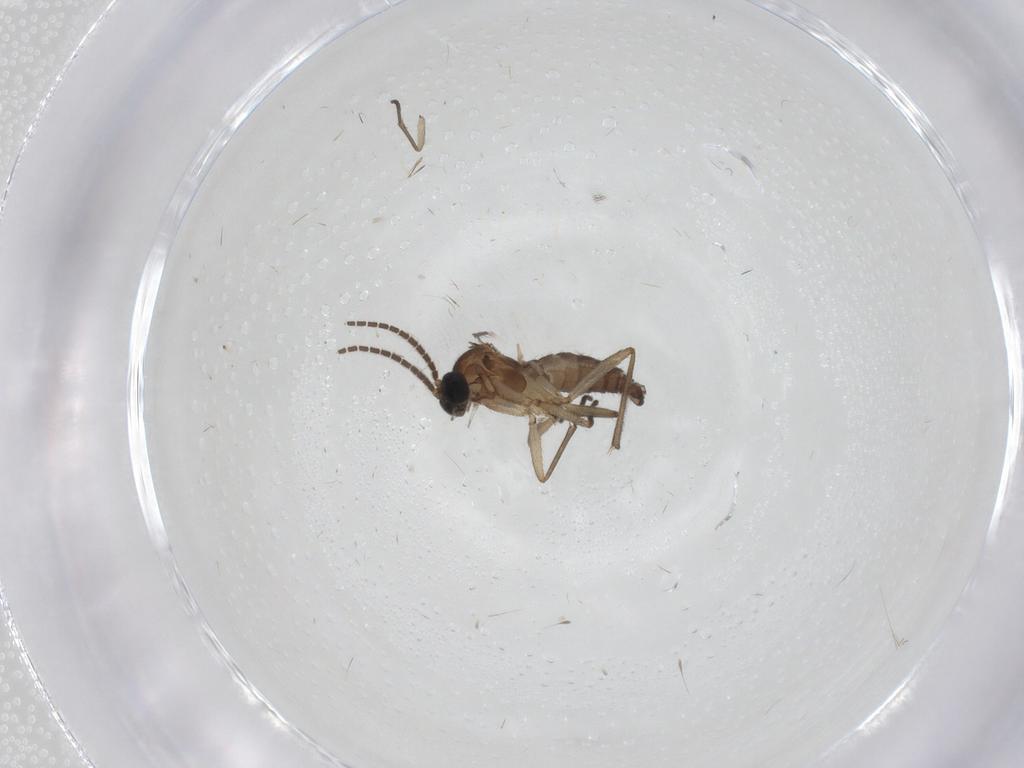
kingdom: Animalia
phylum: Arthropoda
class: Insecta
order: Diptera
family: Sciaridae
